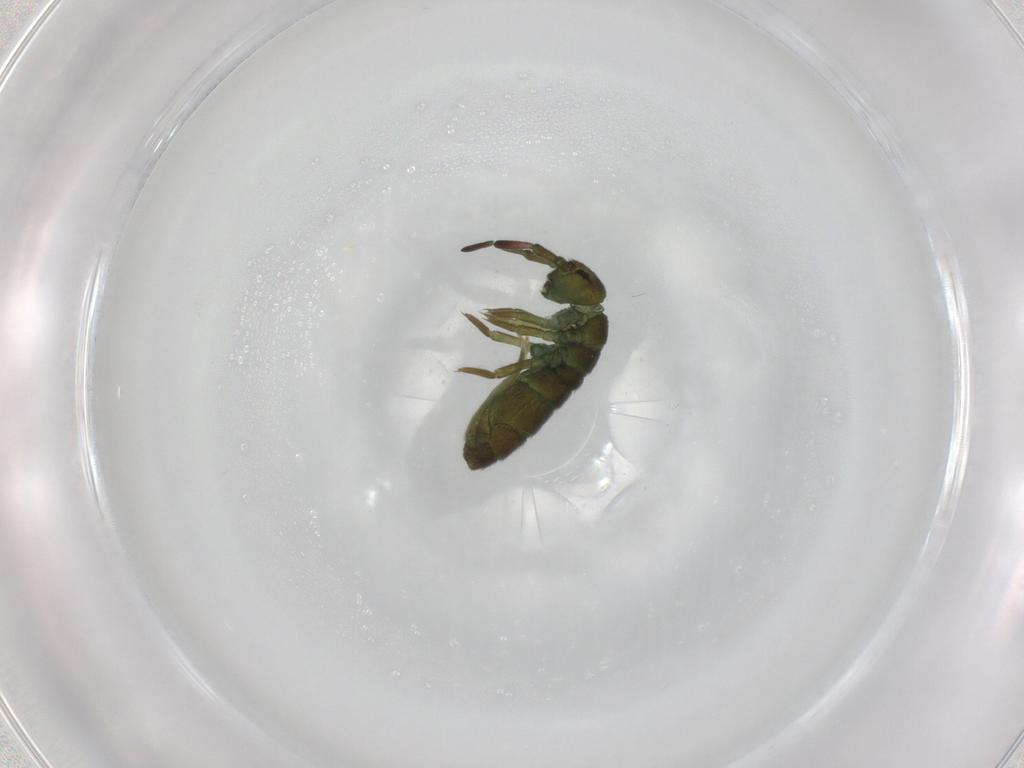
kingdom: Animalia
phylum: Arthropoda
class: Collembola
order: Entomobryomorpha
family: Isotomidae
